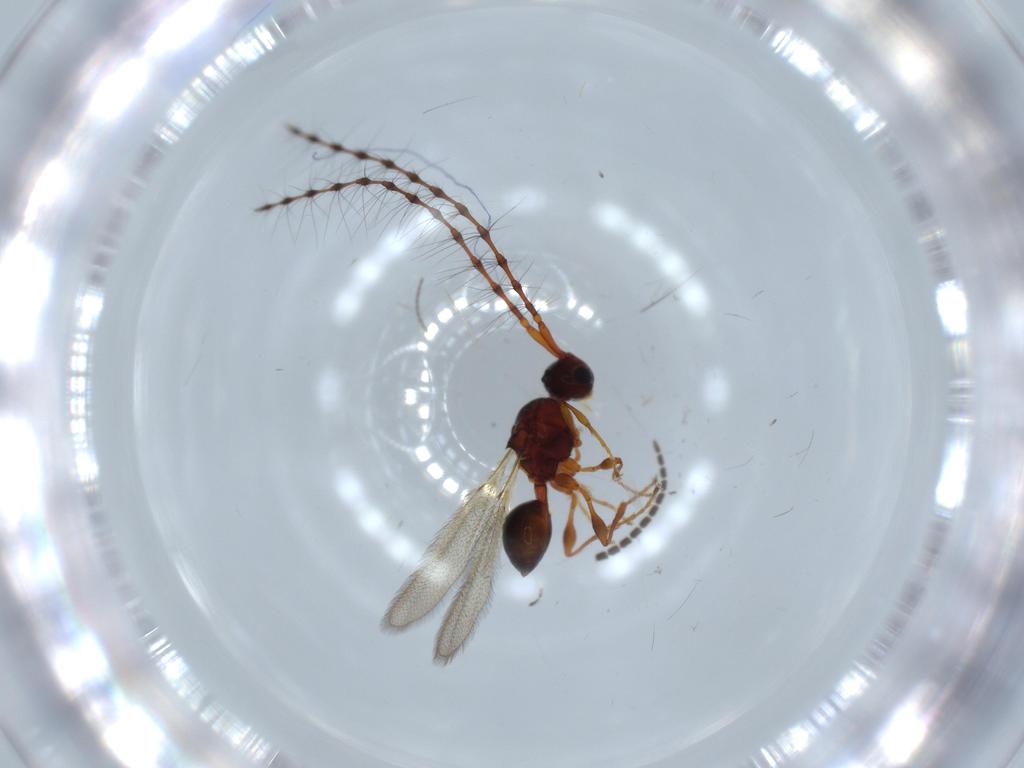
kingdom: Animalia
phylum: Arthropoda
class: Insecta
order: Hymenoptera
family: Diapriidae
